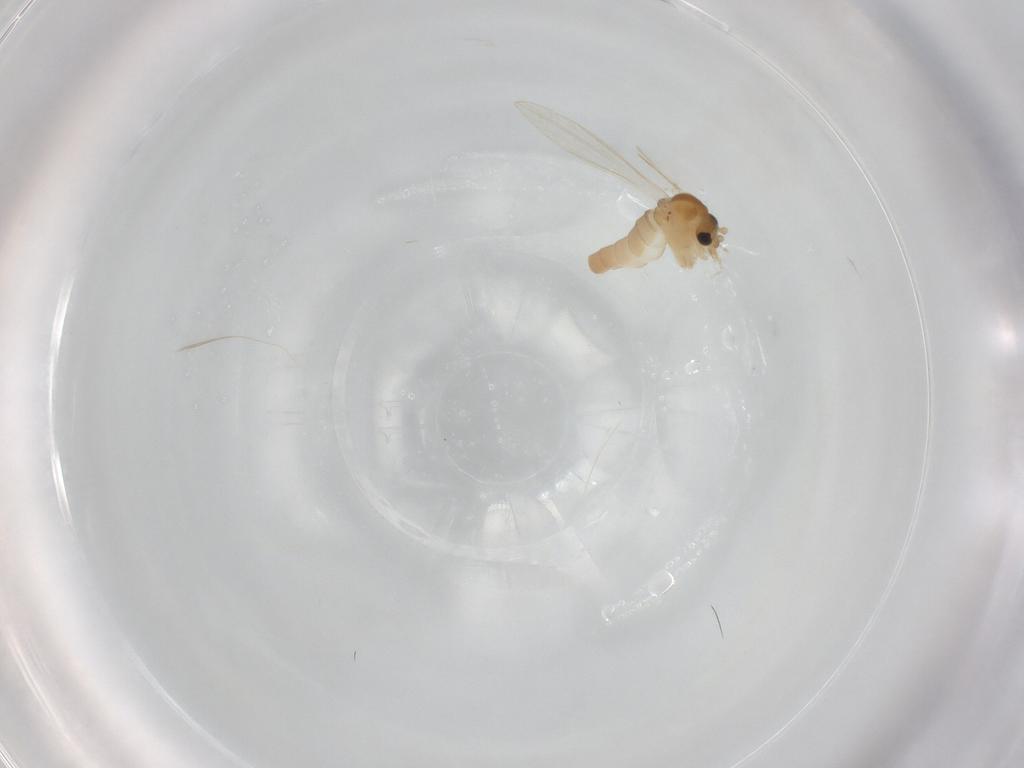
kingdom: Animalia
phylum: Arthropoda
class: Insecta
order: Diptera
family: Psychodidae
